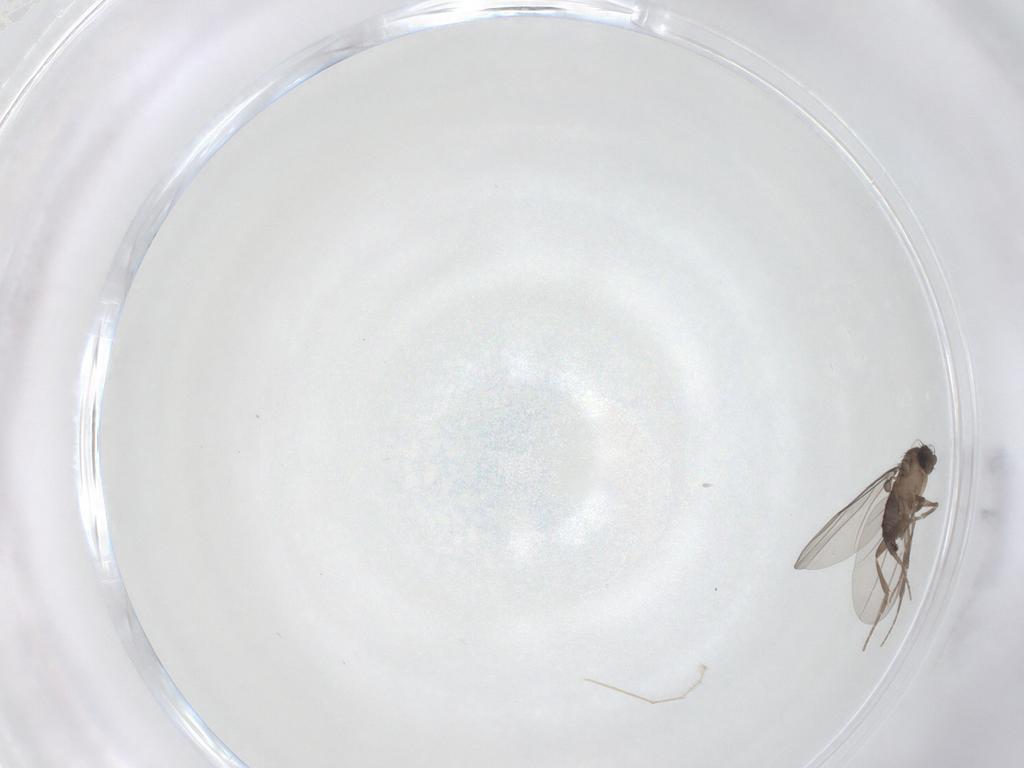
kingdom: Animalia
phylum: Arthropoda
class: Insecta
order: Diptera
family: Phoridae
